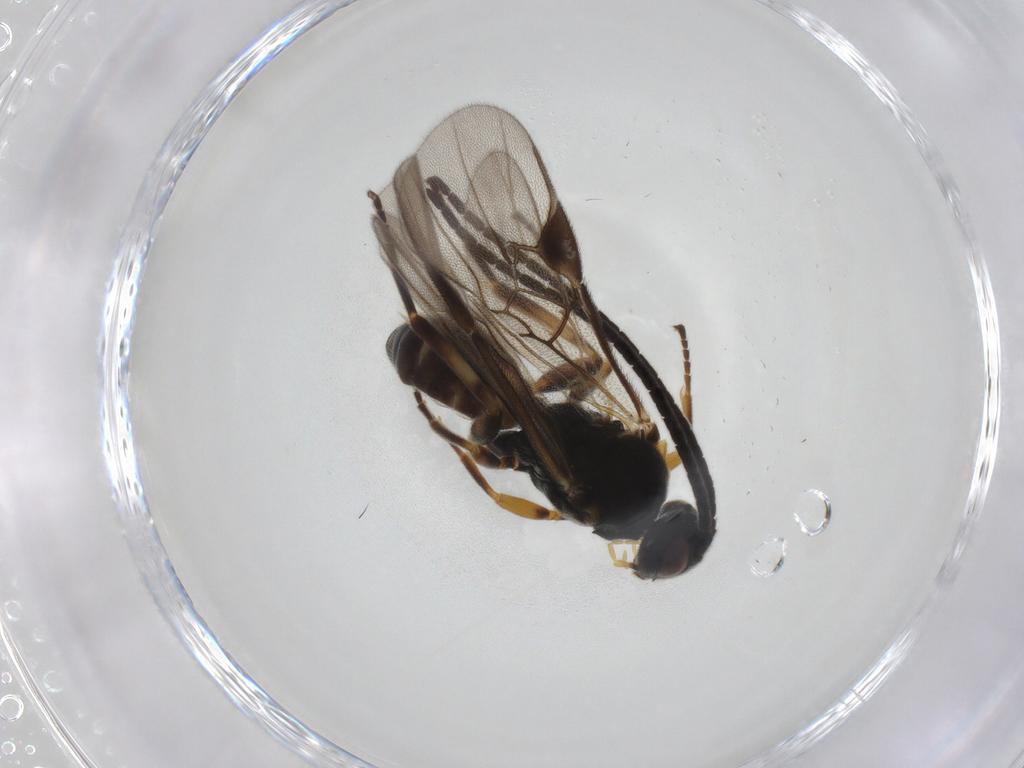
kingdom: Animalia
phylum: Arthropoda
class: Insecta
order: Hymenoptera
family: Braconidae
